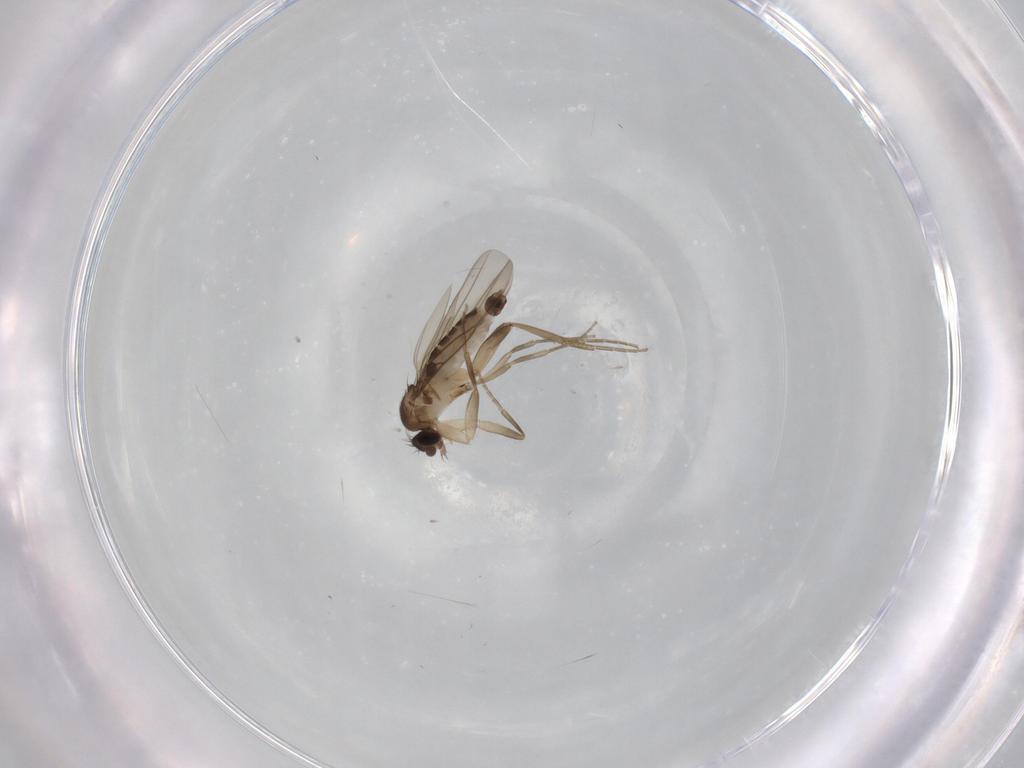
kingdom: Animalia
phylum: Arthropoda
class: Insecta
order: Diptera
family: Phoridae
